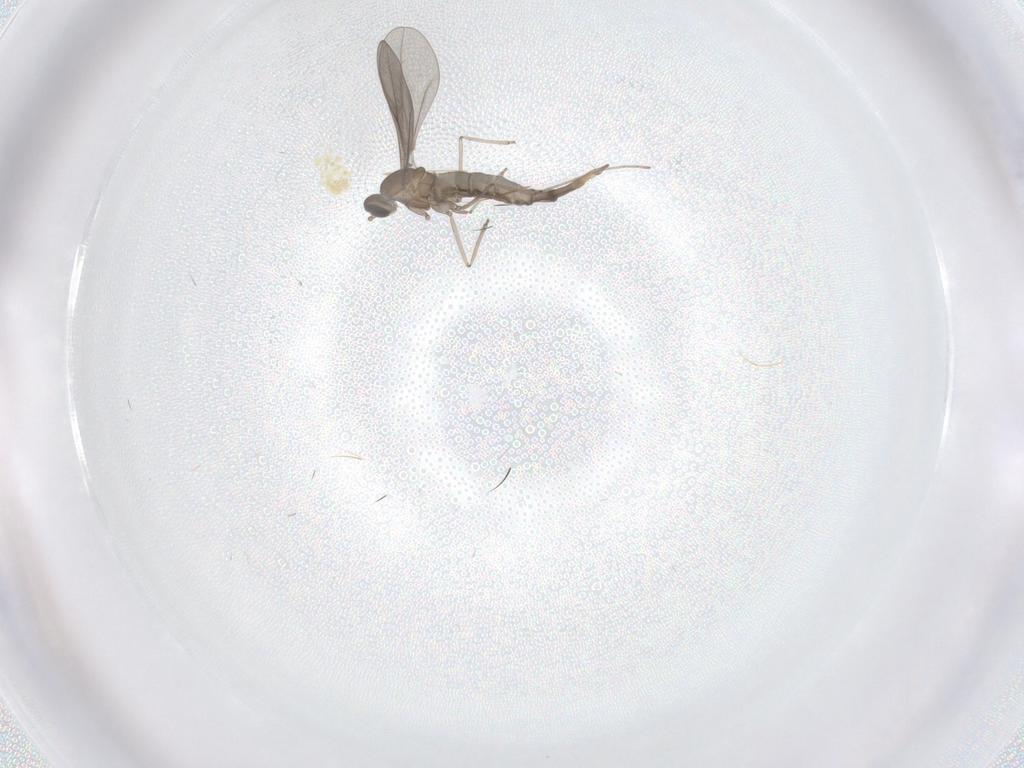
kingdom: Animalia
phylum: Arthropoda
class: Insecta
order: Diptera
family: Cecidomyiidae
